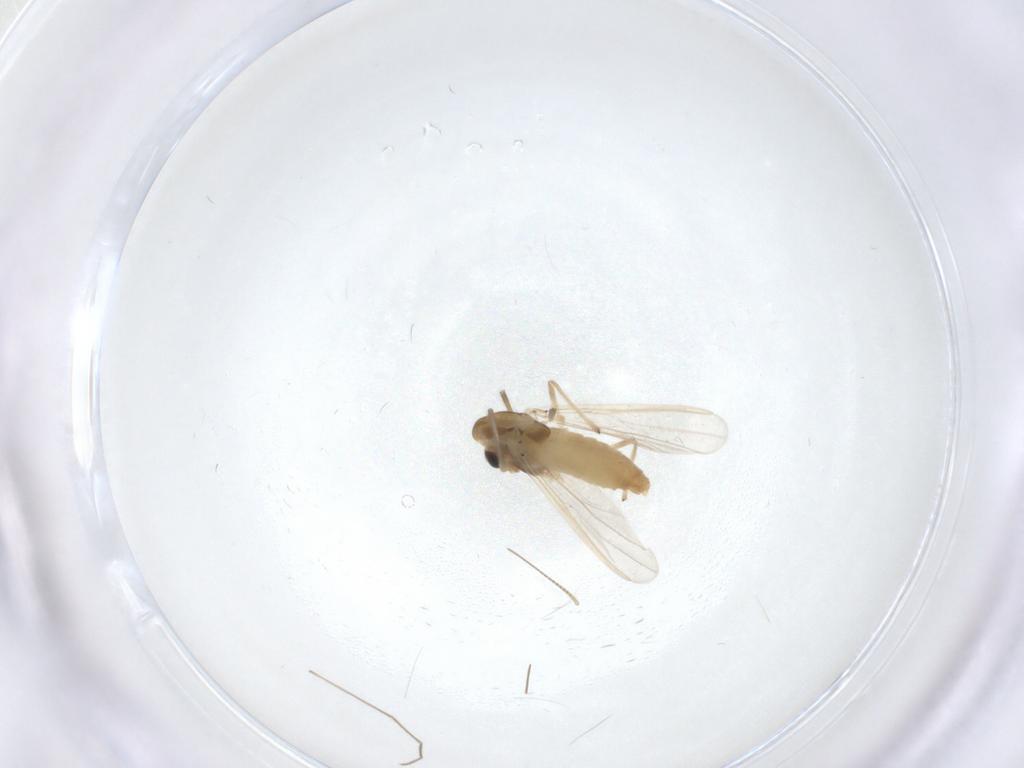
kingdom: Animalia
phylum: Arthropoda
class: Insecta
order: Diptera
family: Chironomidae
